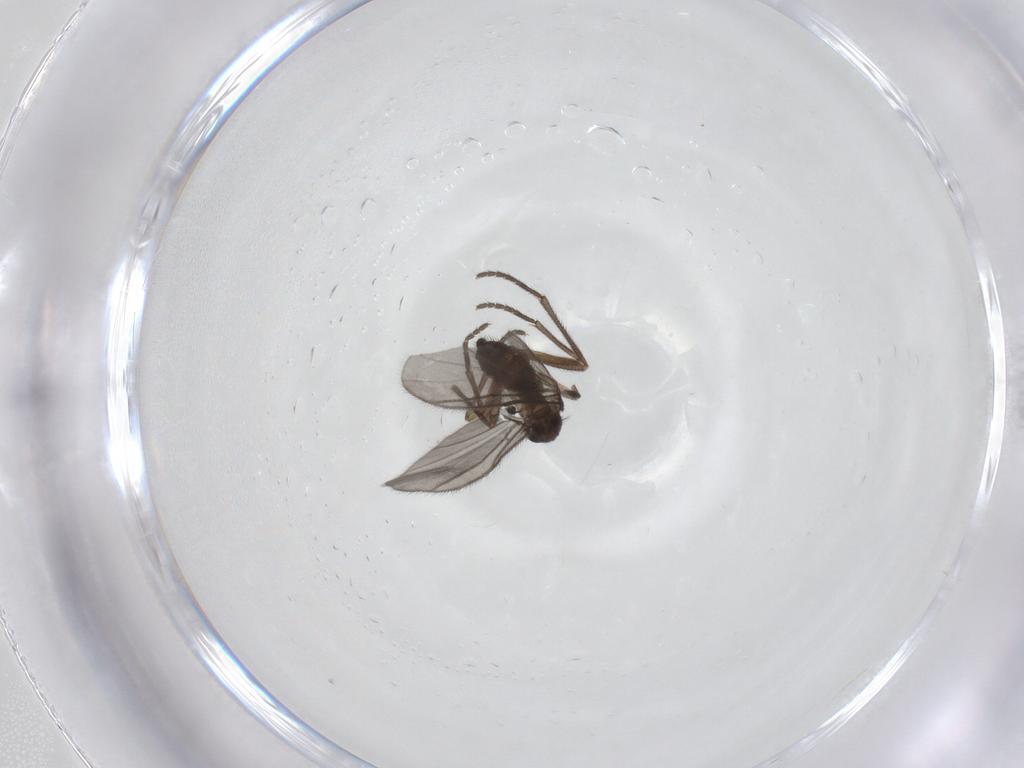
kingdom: Animalia
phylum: Arthropoda
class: Insecta
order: Diptera
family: Sciaridae
